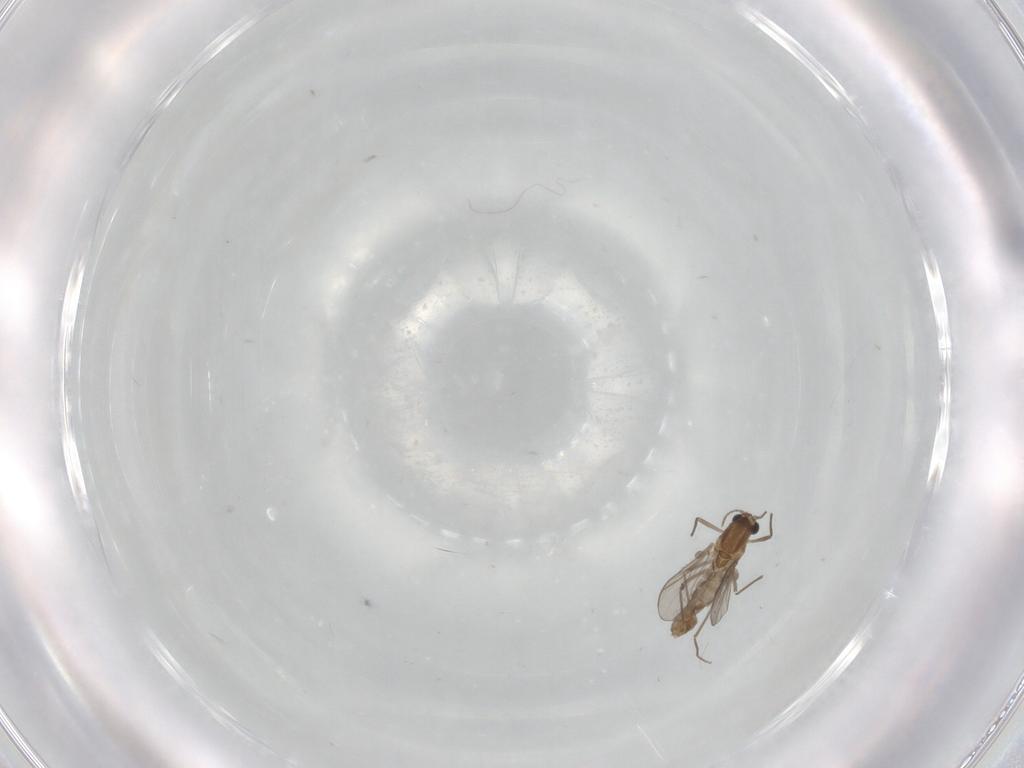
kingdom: Animalia
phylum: Arthropoda
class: Insecta
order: Diptera
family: Chironomidae
